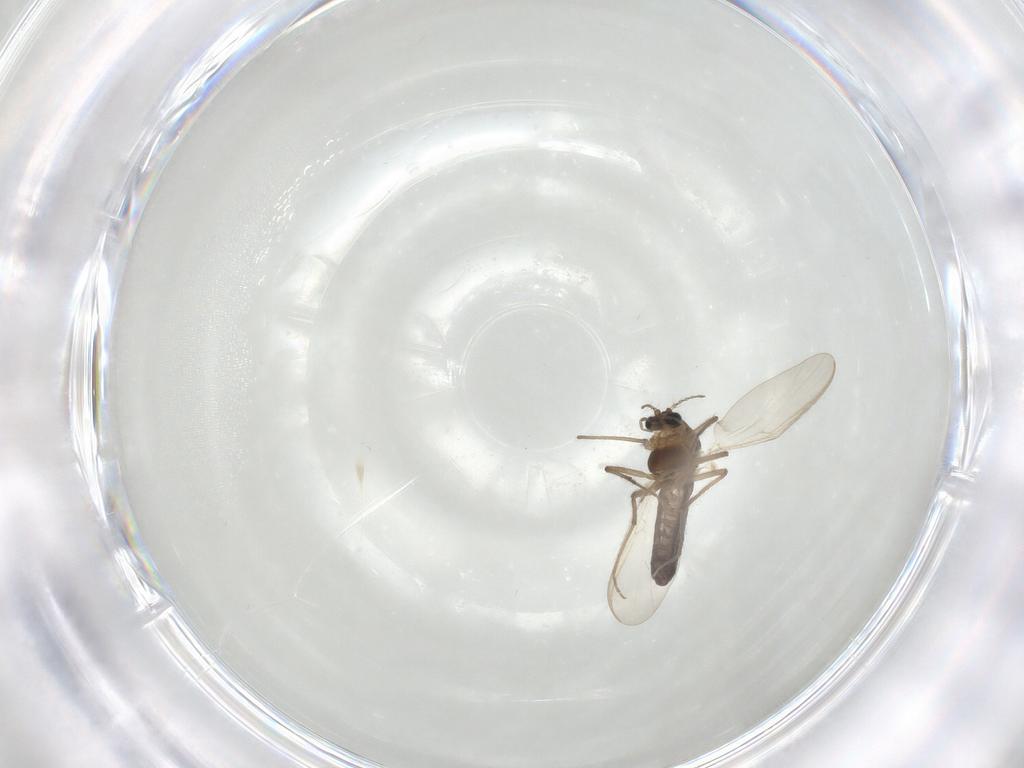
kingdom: Animalia
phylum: Arthropoda
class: Insecta
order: Diptera
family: Chironomidae
